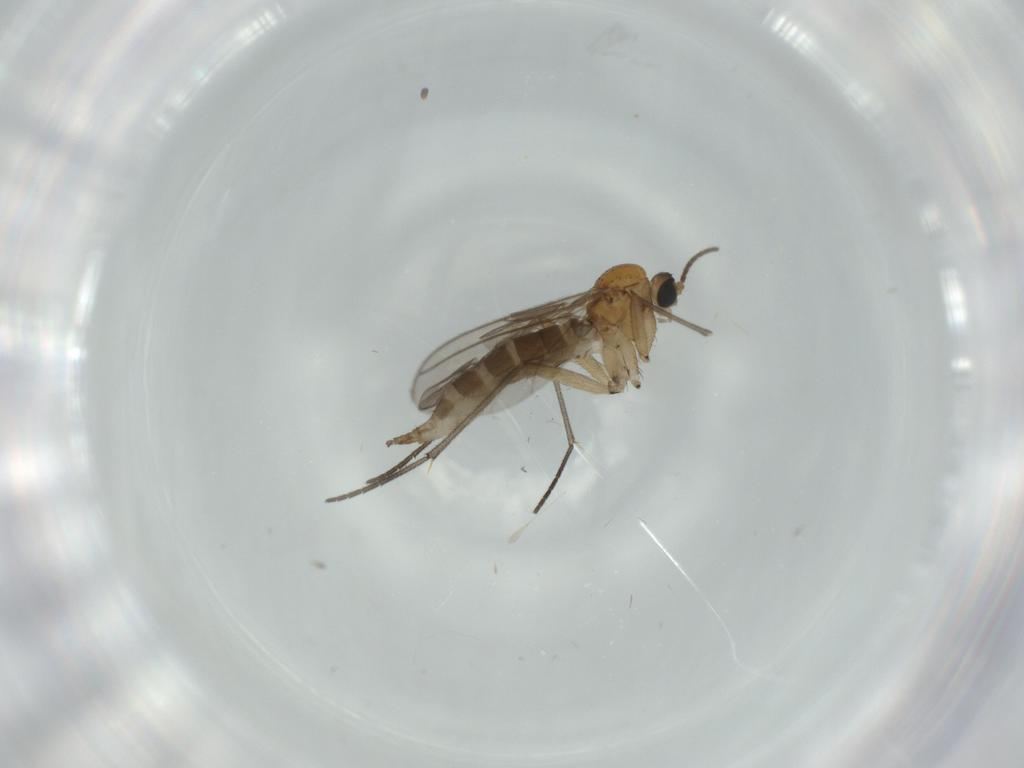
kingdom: Animalia
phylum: Arthropoda
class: Insecta
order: Diptera
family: Sciaridae
